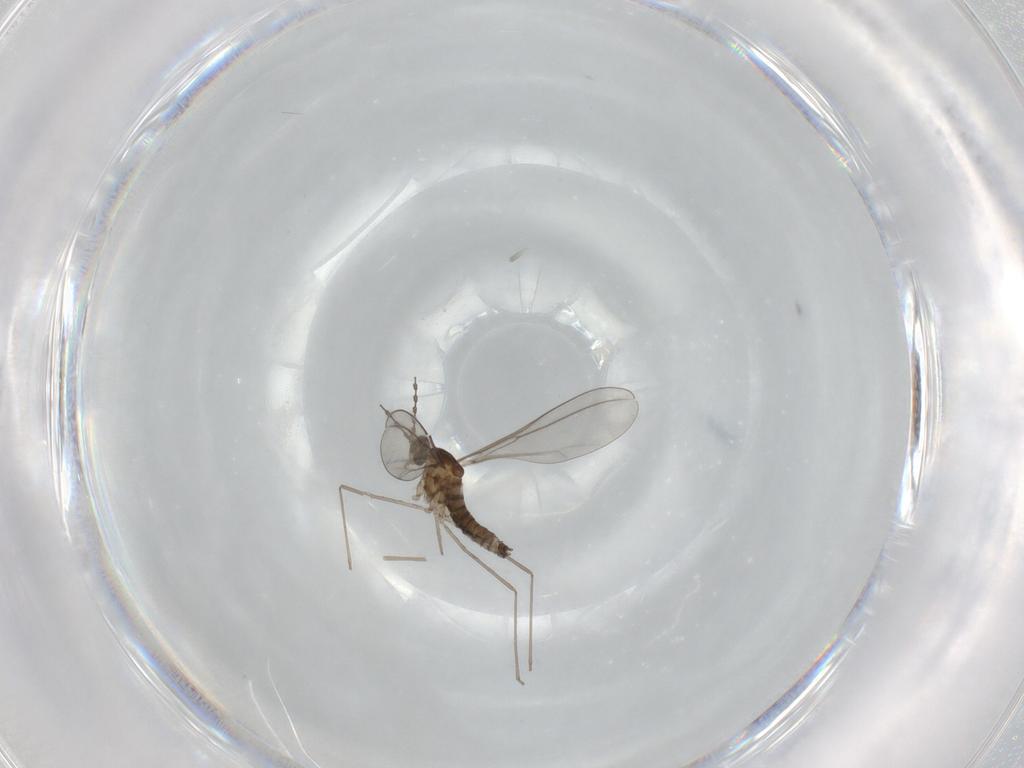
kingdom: Animalia
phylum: Arthropoda
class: Insecta
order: Diptera
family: Cecidomyiidae
